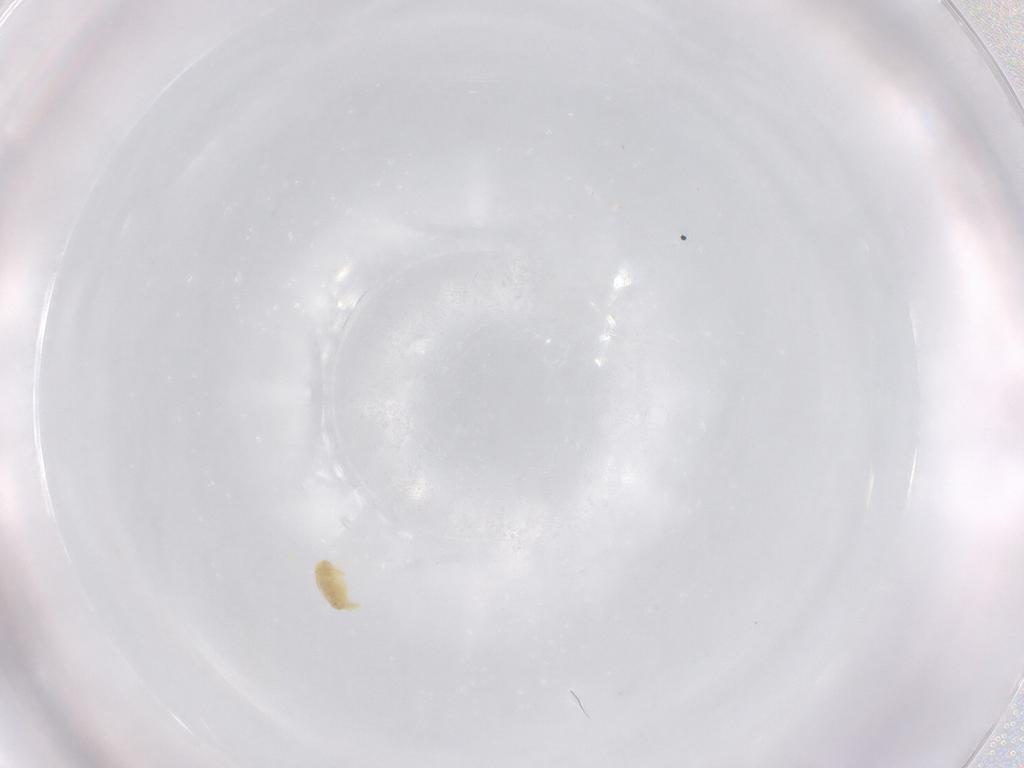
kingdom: Animalia
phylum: Arthropoda
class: Arachnida
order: Trombidiformes
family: Eupodidae
